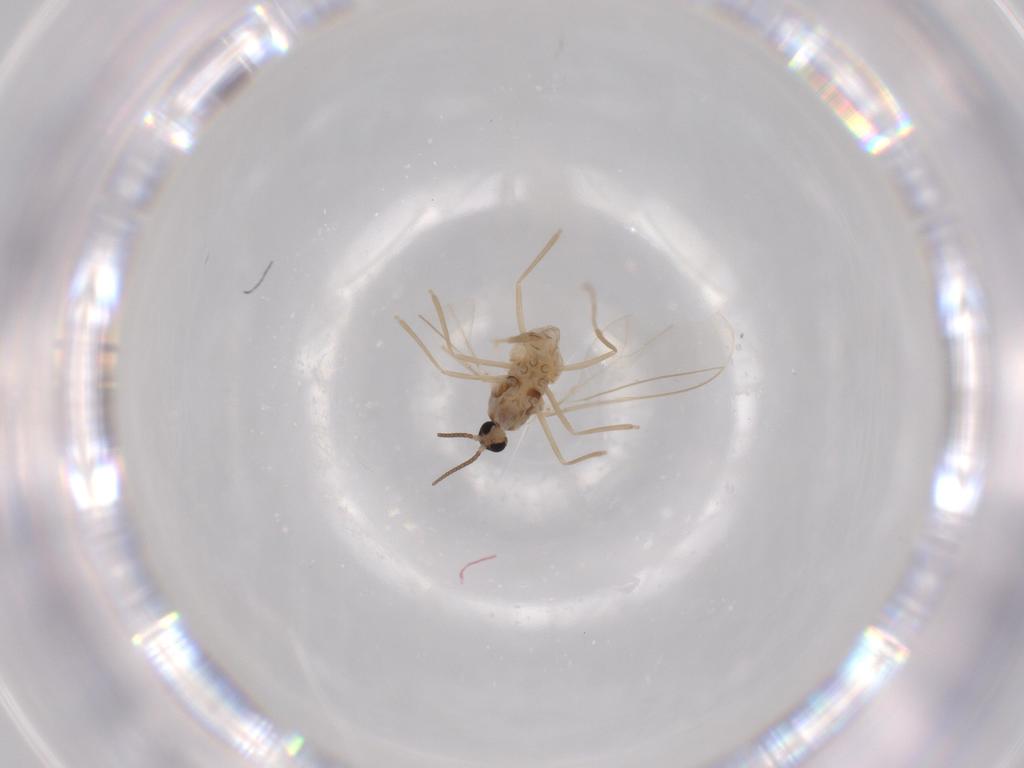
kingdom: Animalia
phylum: Arthropoda
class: Insecta
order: Diptera
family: Cecidomyiidae
